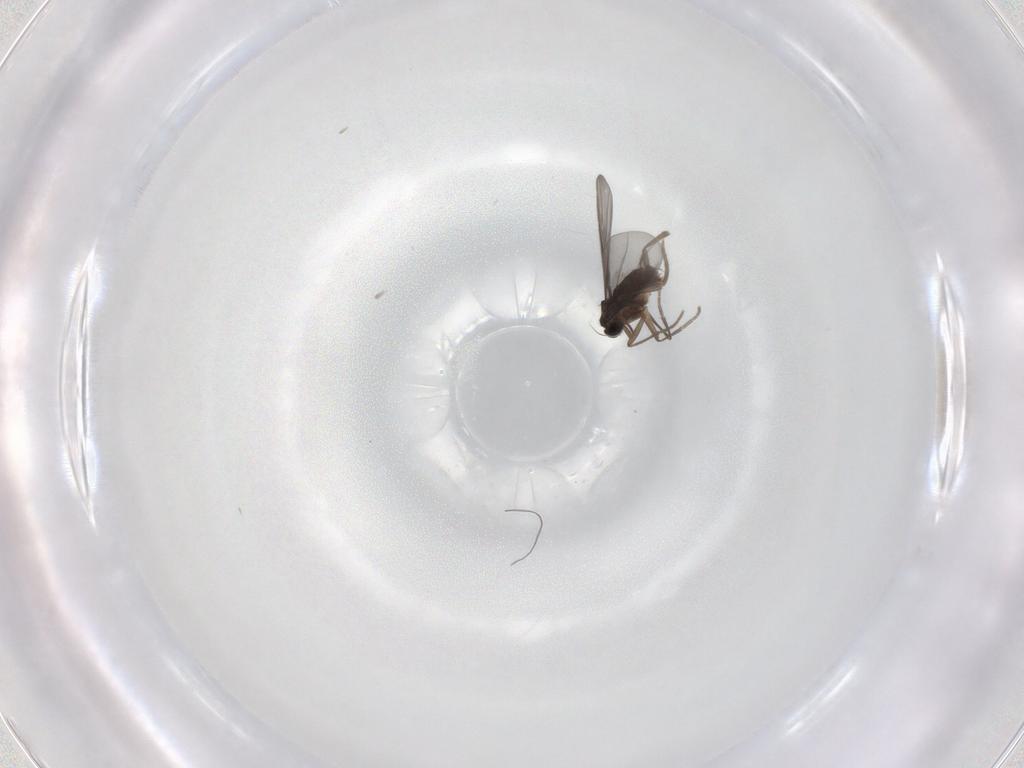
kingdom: Animalia
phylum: Arthropoda
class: Insecta
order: Diptera
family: Phoridae
